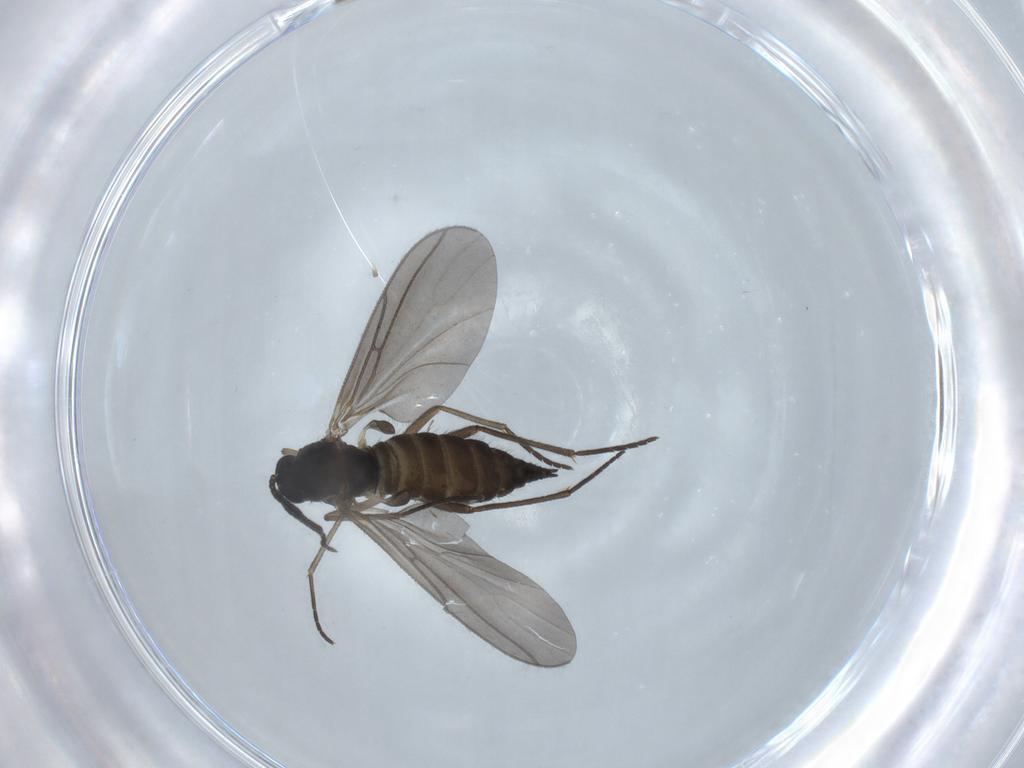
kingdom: Animalia
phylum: Arthropoda
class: Insecta
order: Diptera
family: Sciaridae
